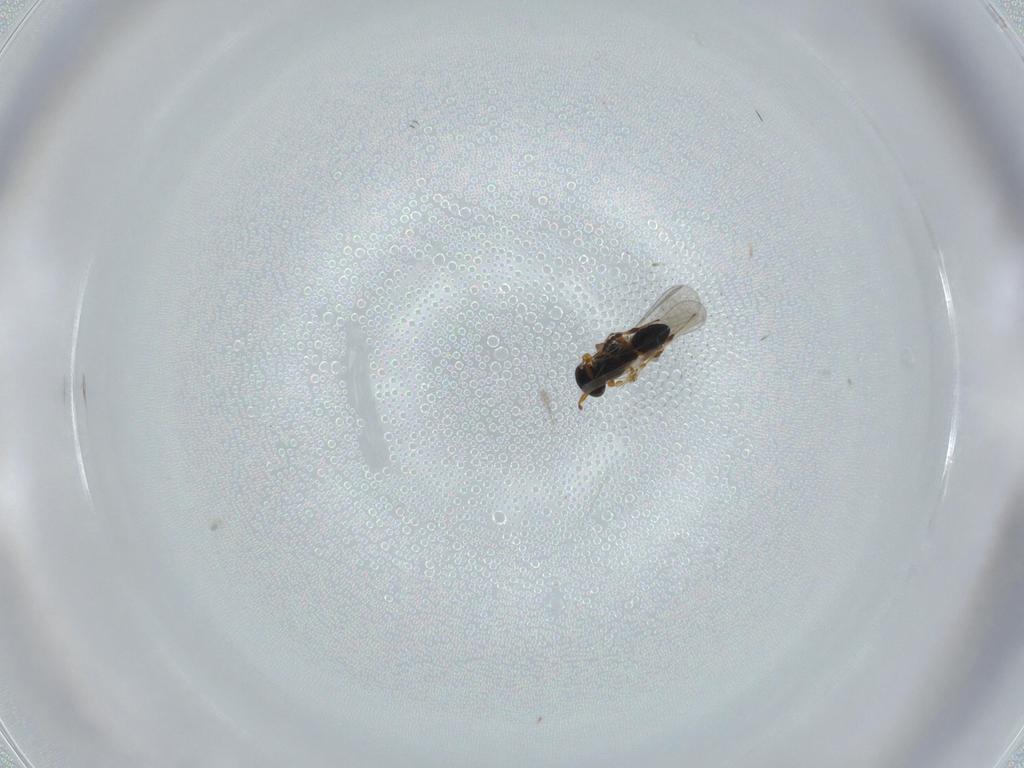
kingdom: Animalia
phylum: Arthropoda
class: Insecta
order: Hymenoptera
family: Platygastridae
